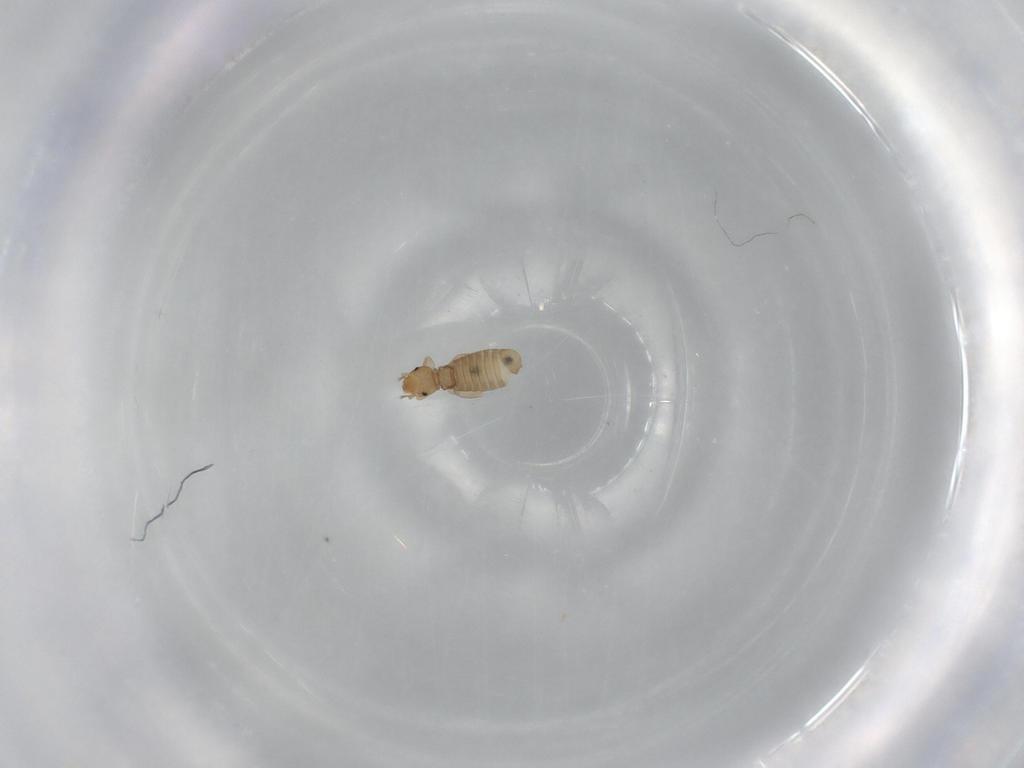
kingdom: Animalia
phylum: Arthropoda
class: Insecta
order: Psocodea
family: Liposcelididae
